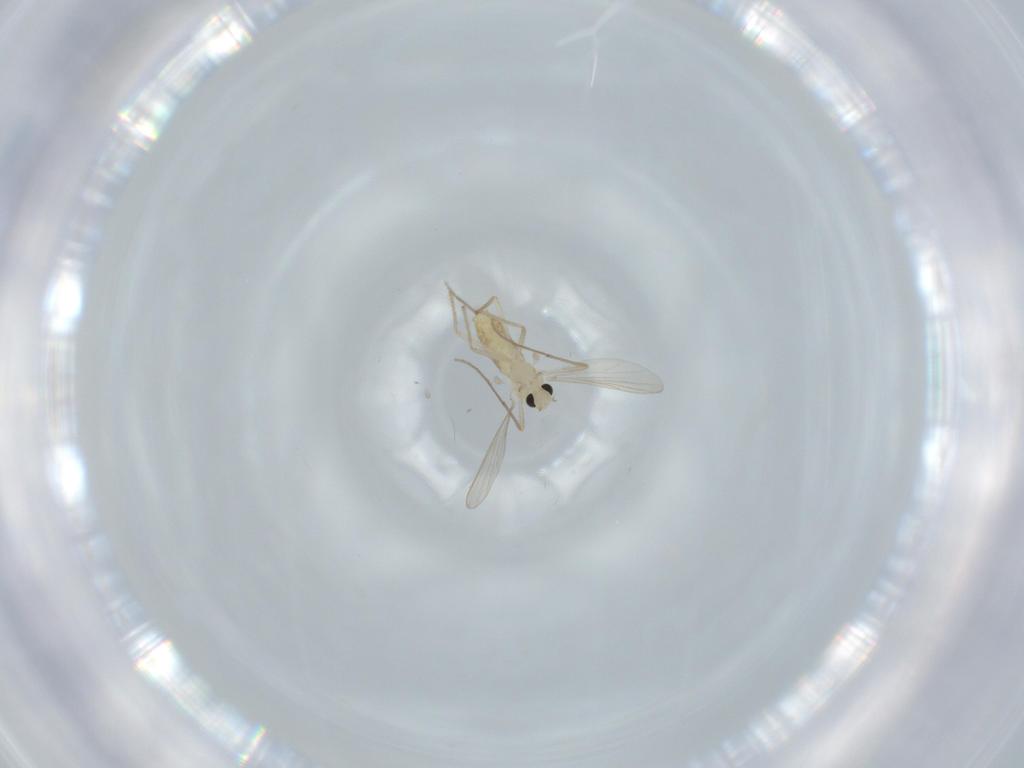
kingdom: Animalia
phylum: Arthropoda
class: Insecta
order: Diptera
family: Chironomidae
